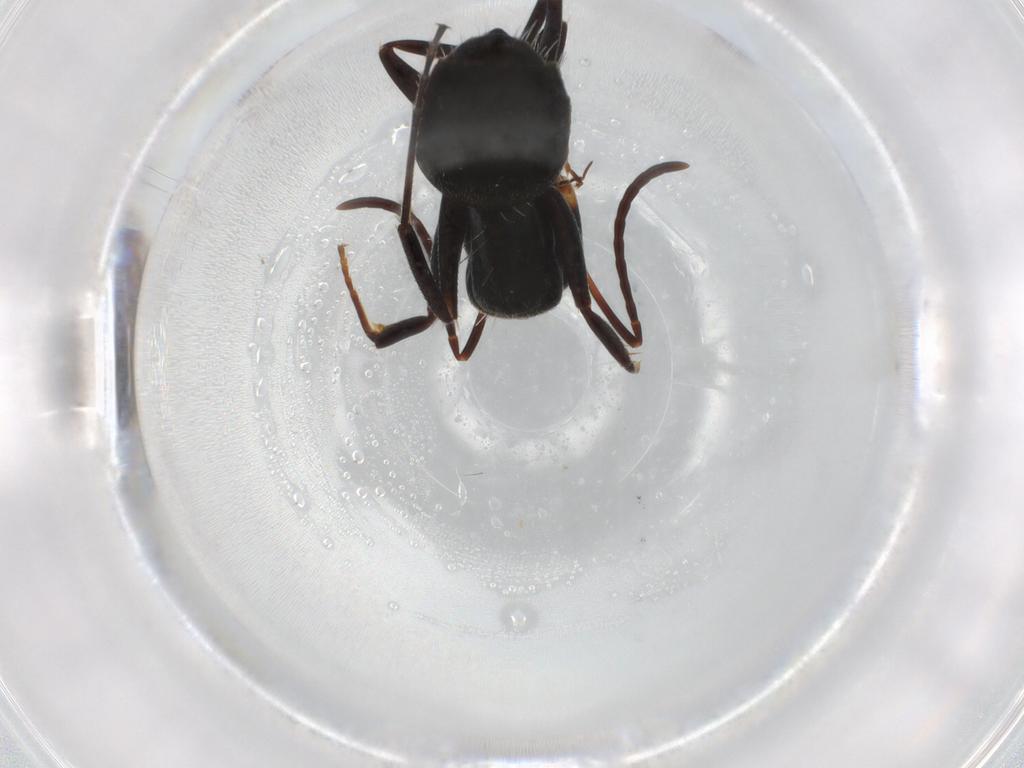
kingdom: Animalia
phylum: Arthropoda
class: Insecta
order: Hymenoptera
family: Formicidae
